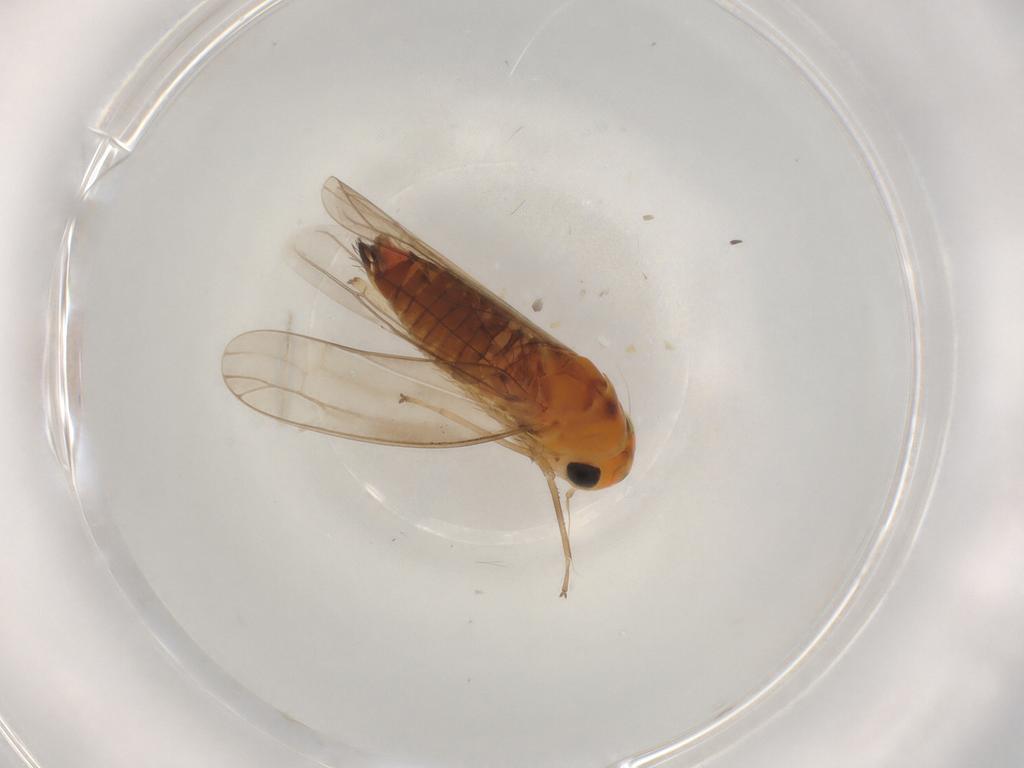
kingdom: Animalia
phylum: Arthropoda
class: Insecta
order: Hemiptera
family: Cicadellidae
